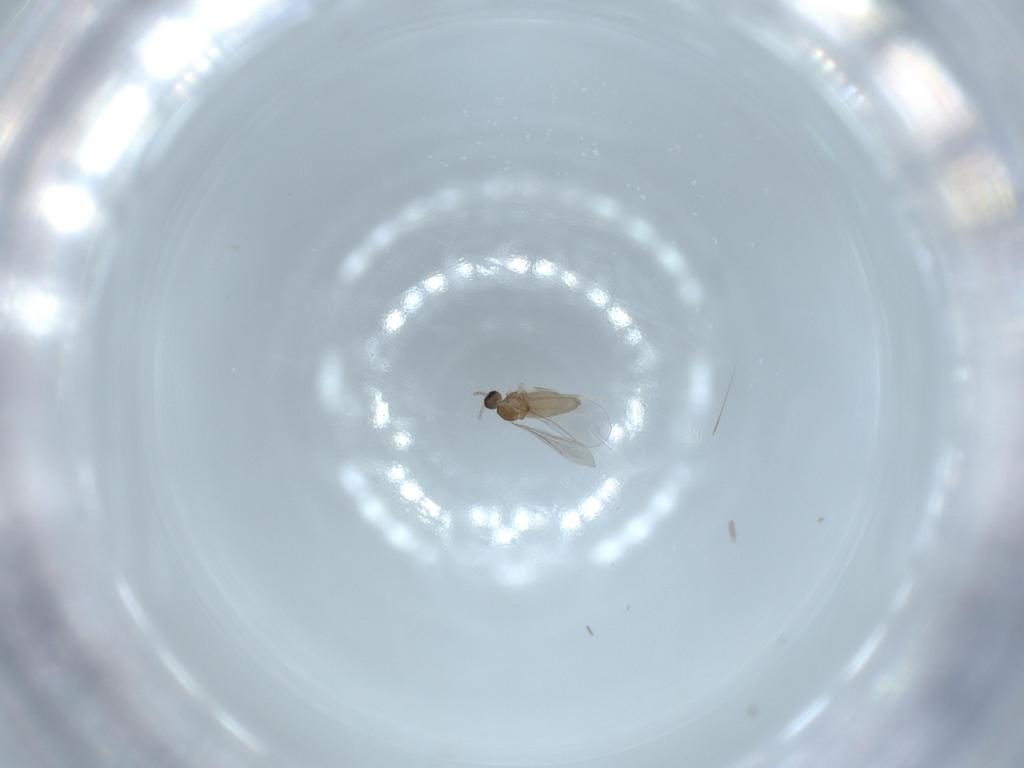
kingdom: Animalia
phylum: Arthropoda
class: Insecta
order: Diptera
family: Cecidomyiidae
